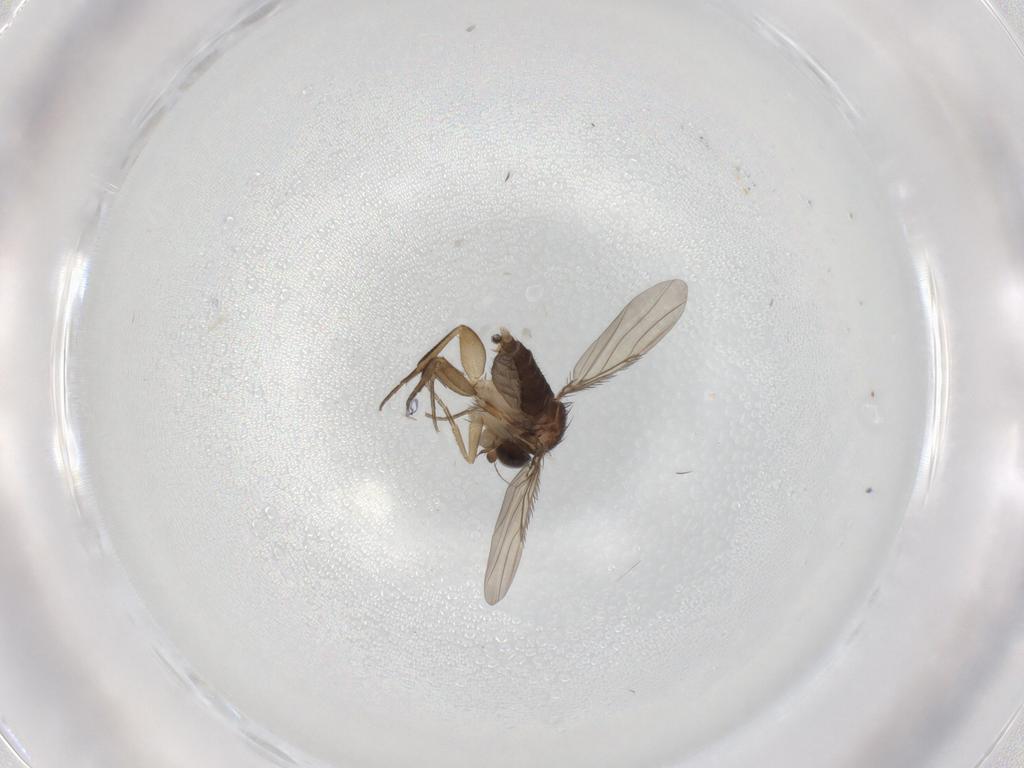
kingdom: Animalia
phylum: Arthropoda
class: Insecta
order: Diptera
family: Phoridae
